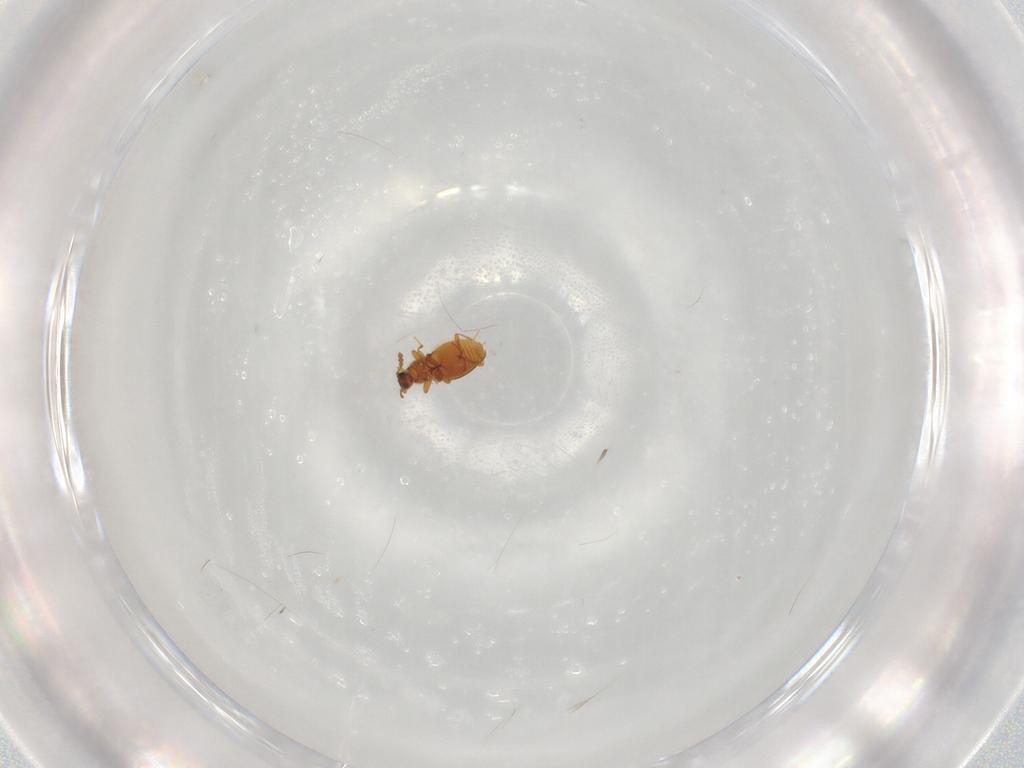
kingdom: Animalia
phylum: Arthropoda
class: Insecta
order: Coleoptera
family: Staphylinidae
